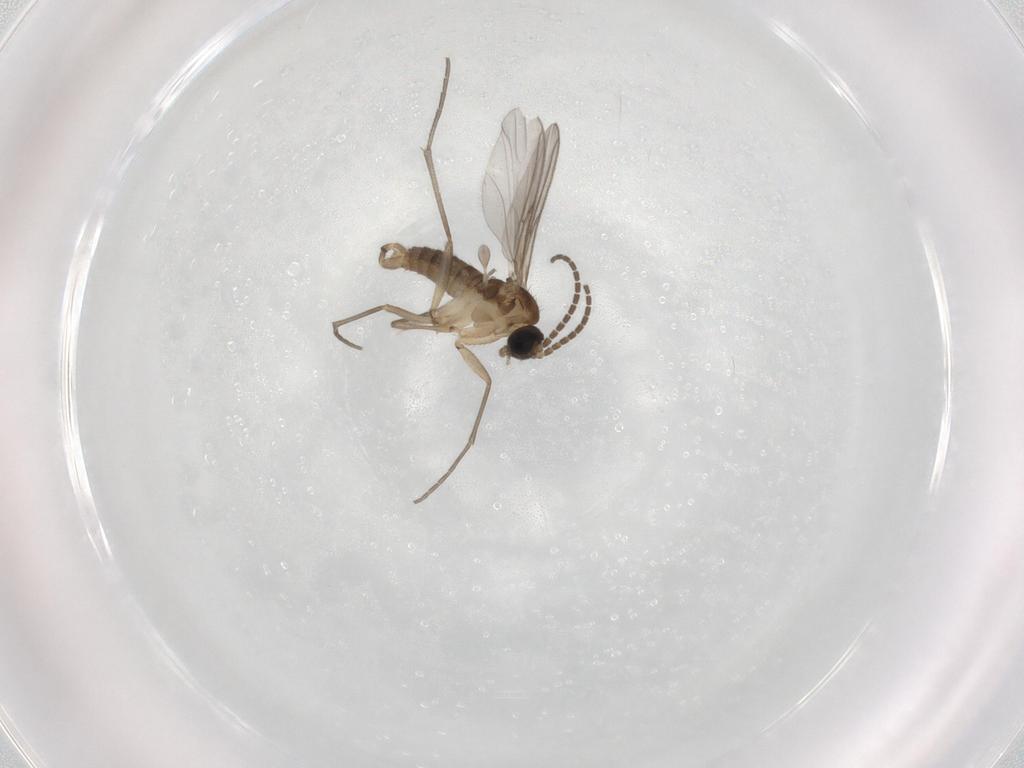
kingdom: Animalia
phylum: Arthropoda
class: Insecta
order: Diptera
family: Sciaridae
